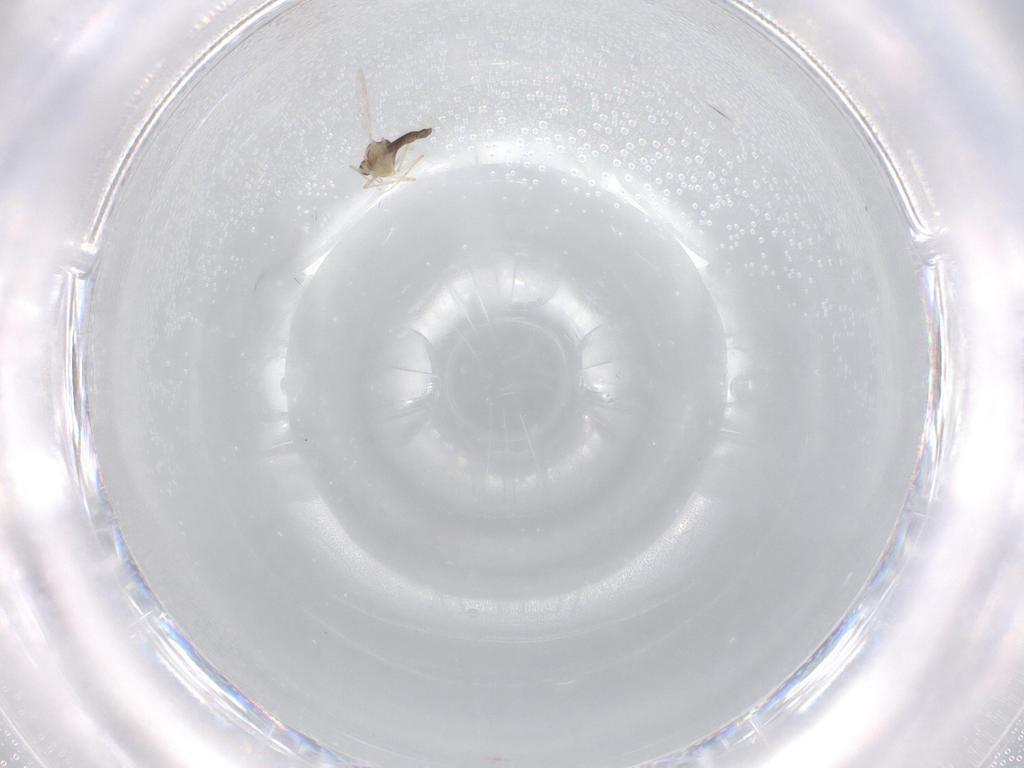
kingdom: Animalia
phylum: Arthropoda
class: Insecta
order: Diptera
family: Chironomidae
